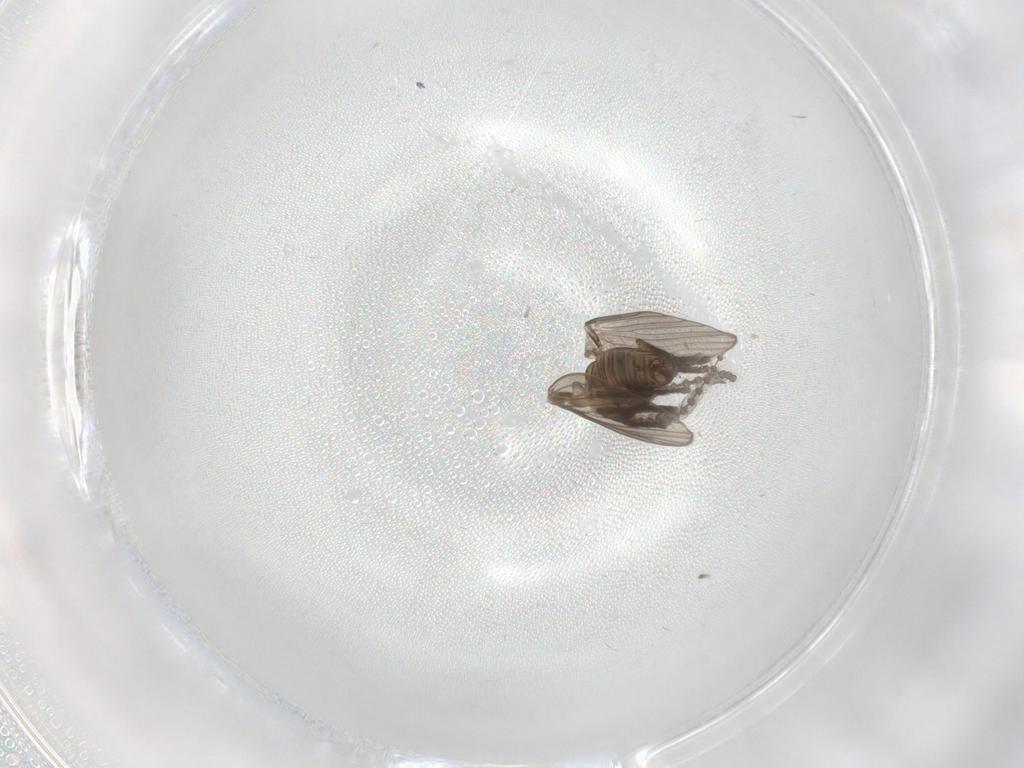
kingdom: Animalia
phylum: Arthropoda
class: Insecta
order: Diptera
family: Ceratopogonidae
